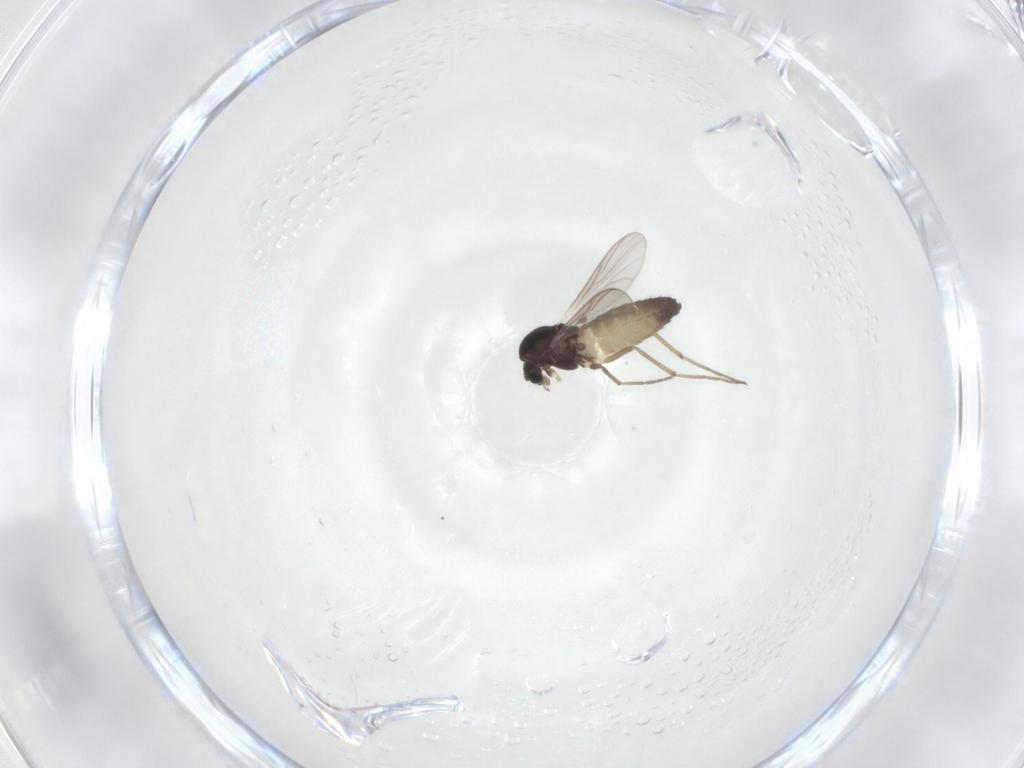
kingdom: Animalia
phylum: Arthropoda
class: Insecta
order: Diptera
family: Chironomidae
